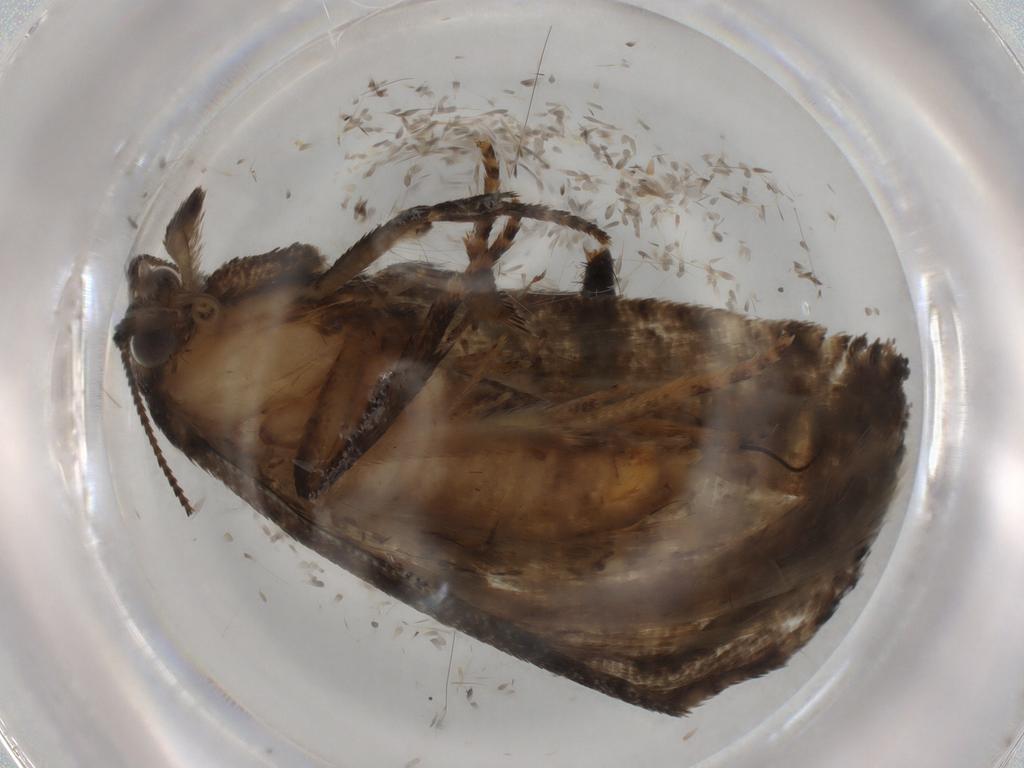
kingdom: Animalia
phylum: Arthropoda
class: Insecta
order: Lepidoptera
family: Tortricidae
